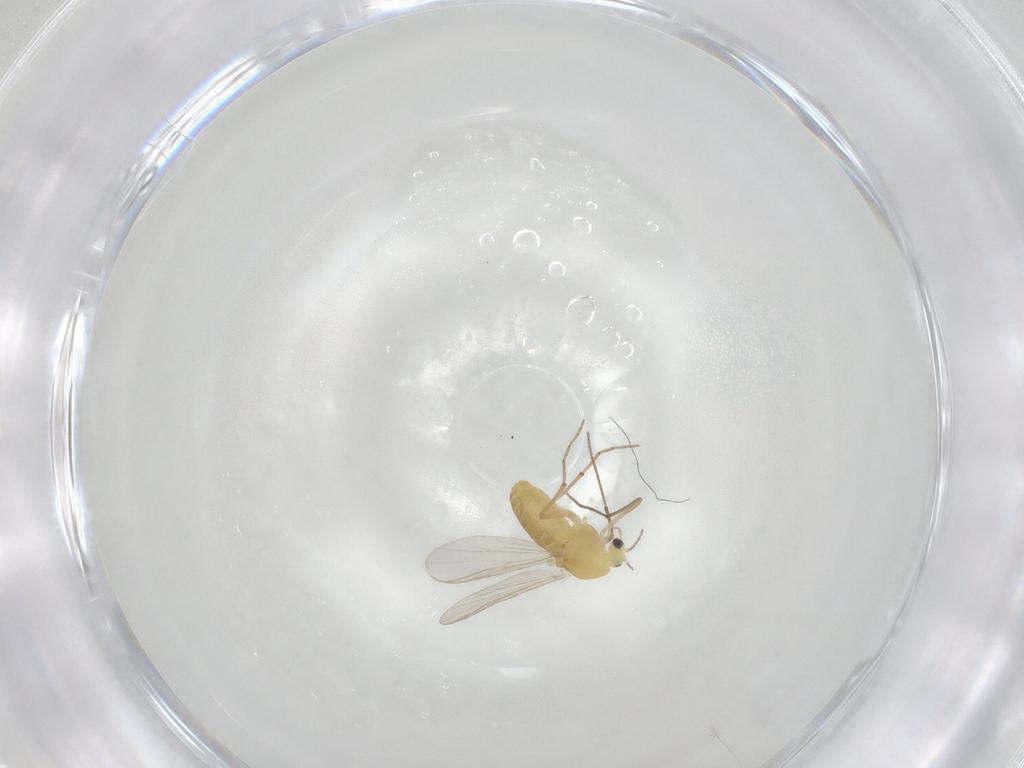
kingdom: Animalia
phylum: Arthropoda
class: Insecta
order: Diptera
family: Chironomidae
